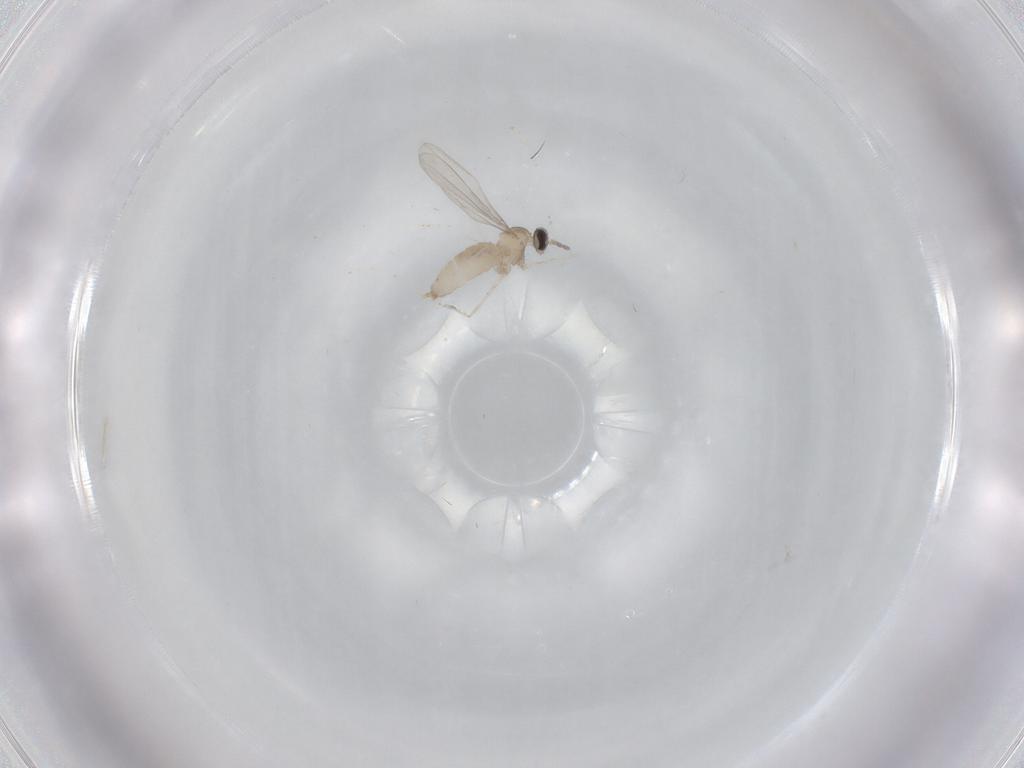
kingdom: Animalia
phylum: Arthropoda
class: Insecta
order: Diptera
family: Cecidomyiidae
